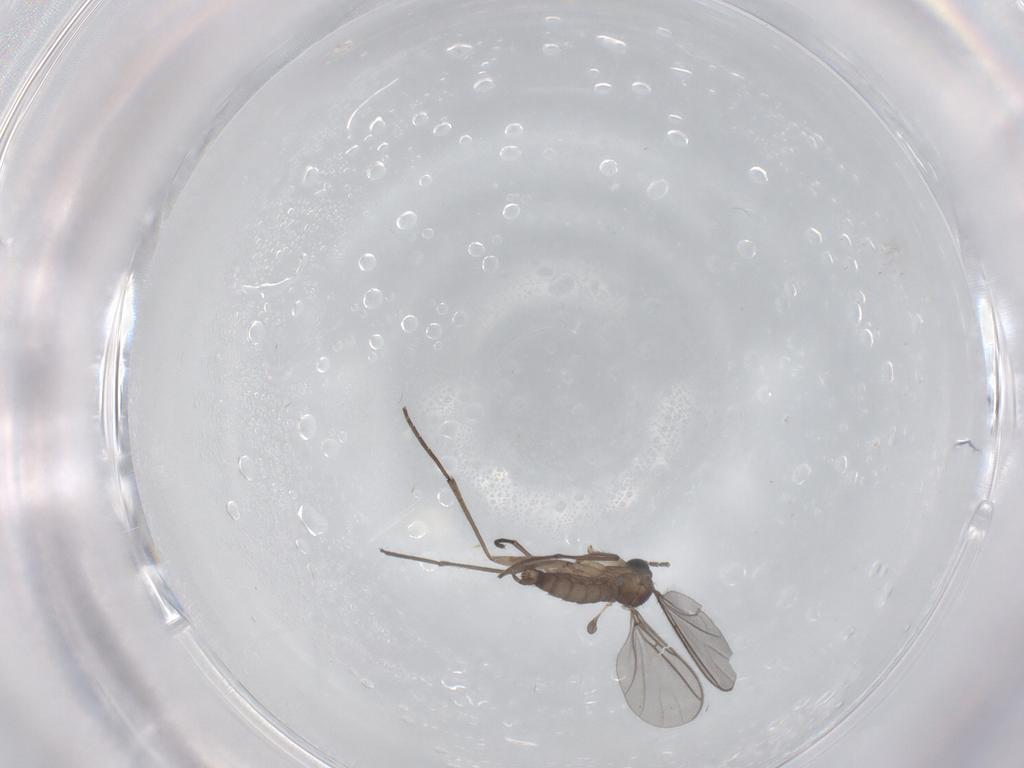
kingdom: Animalia
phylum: Arthropoda
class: Insecta
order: Diptera
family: Sciaridae
